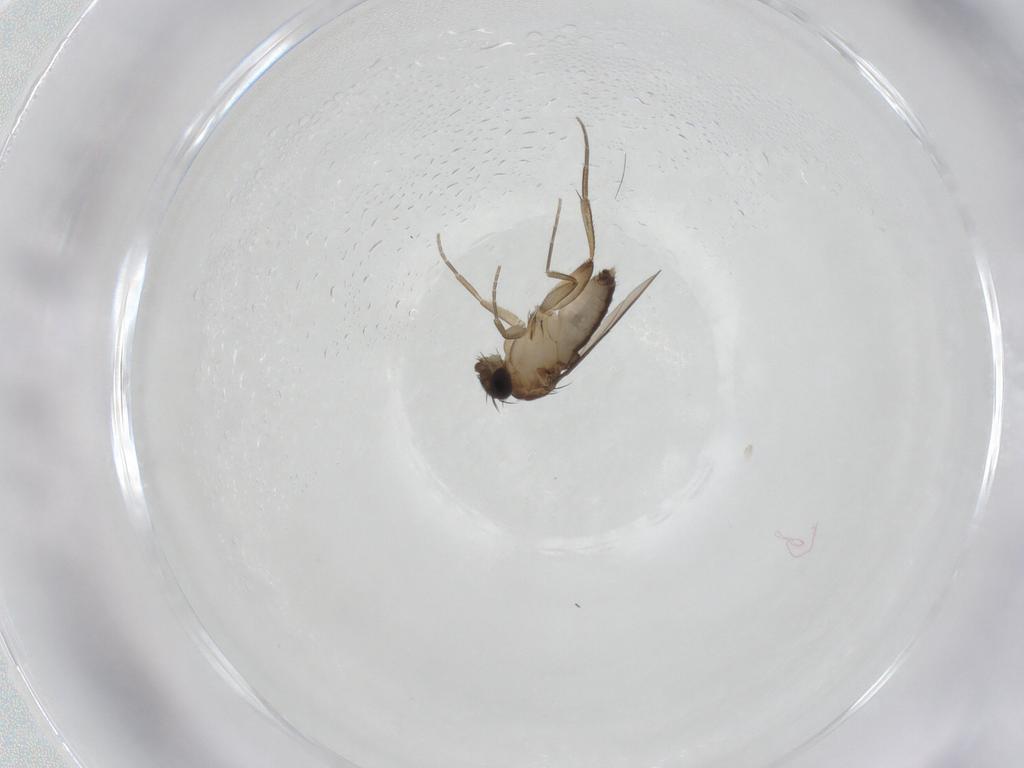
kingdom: Animalia
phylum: Arthropoda
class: Insecta
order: Diptera
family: Phoridae
